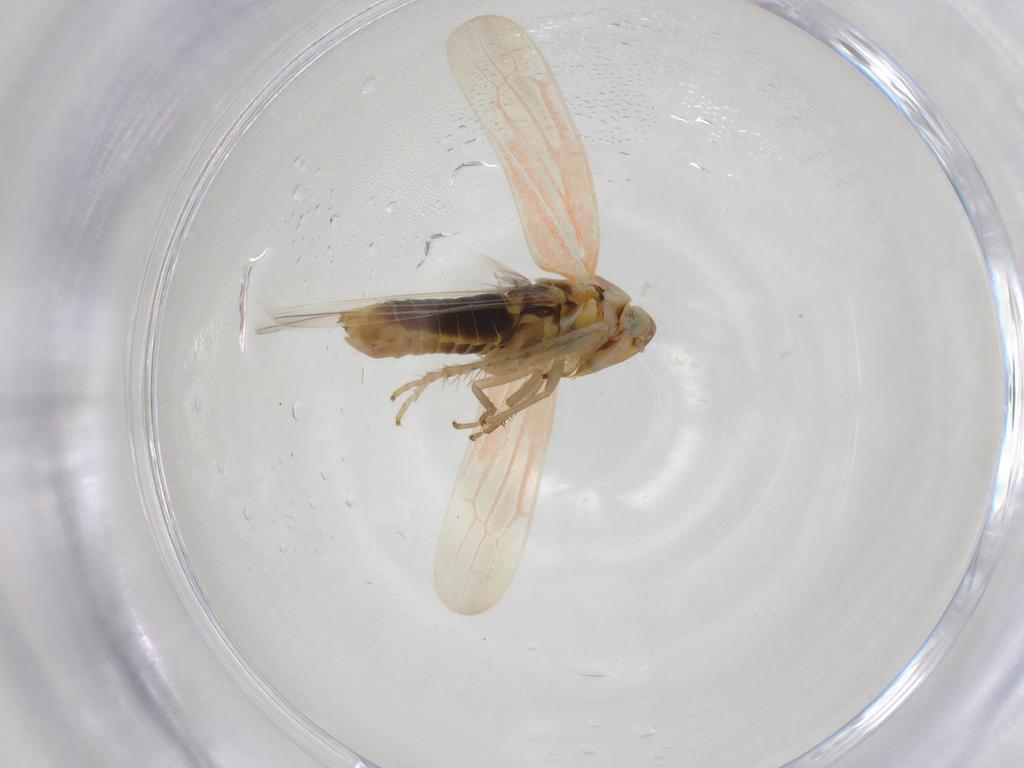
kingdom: Animalia
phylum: Arthropoda
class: Insecta
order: Hemiptera
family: Cicadellidae
